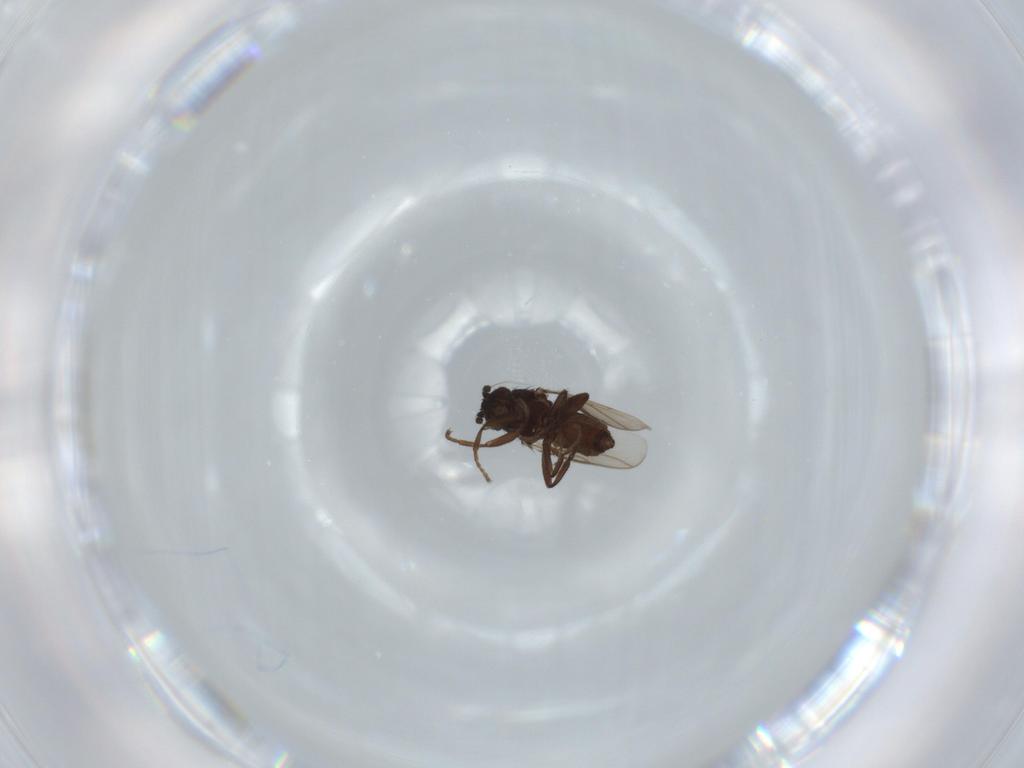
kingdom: Animalia
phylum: Arthropoda
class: Insecta
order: Diptera
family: Sphaeroceridae
